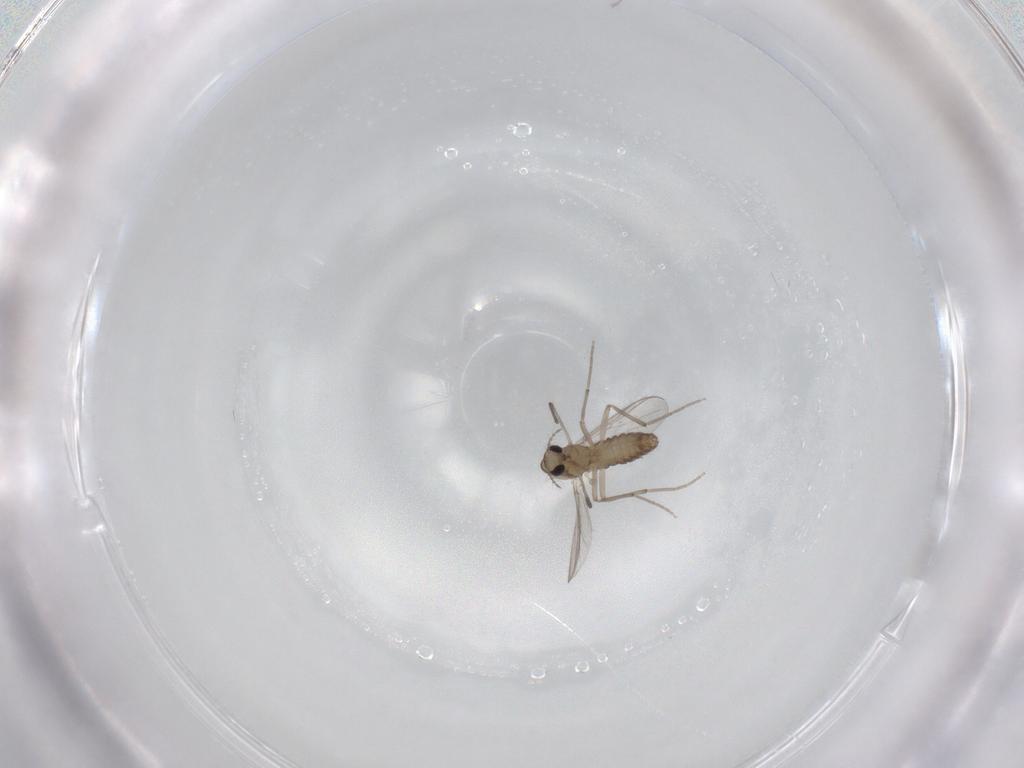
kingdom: Animalia
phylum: Arthropoda
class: Insecta
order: Diptera
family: Chironomidae
